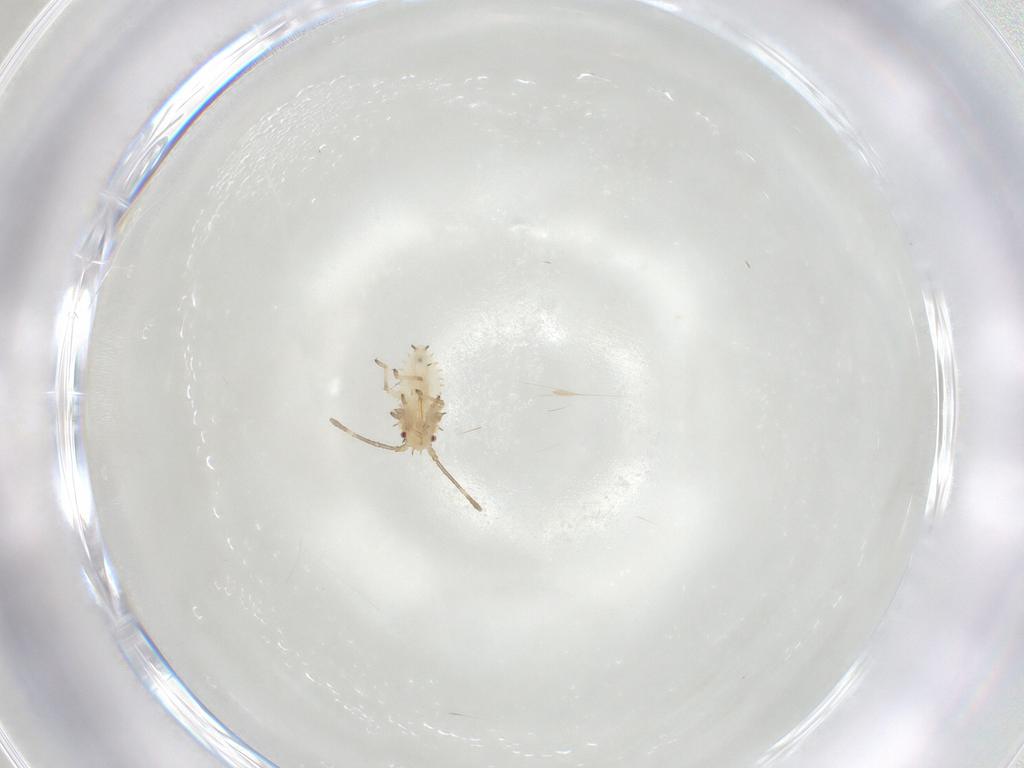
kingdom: Animalia
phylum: Arthropoda
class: Insecta
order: Hemiptera
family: Tingidae
